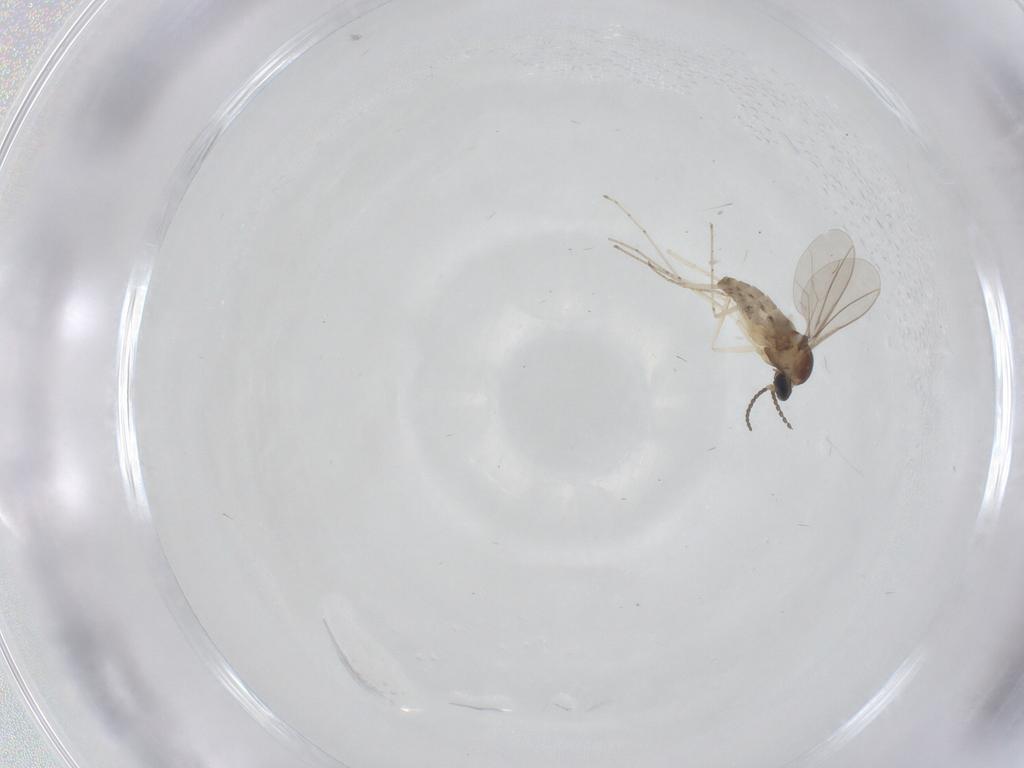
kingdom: Animalia
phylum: Arthropoda
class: Insecta
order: Diptera
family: Cecidomyiidae
